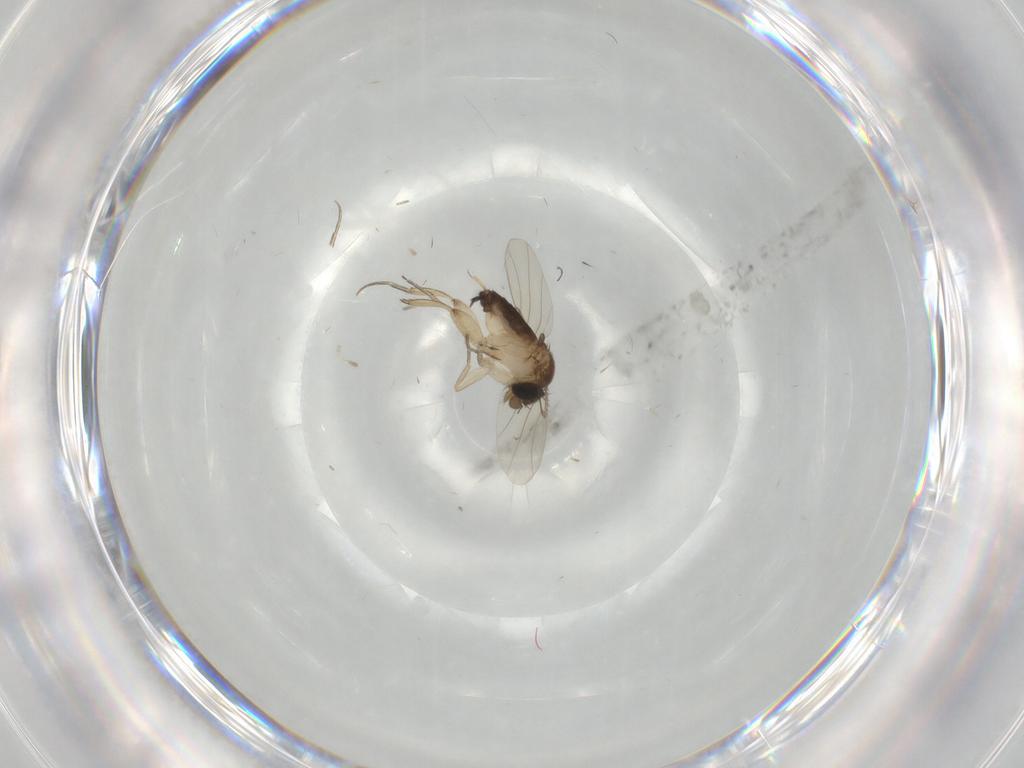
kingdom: Animalia
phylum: Arthropoda
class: Insecta
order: Diptera
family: Phoridae
